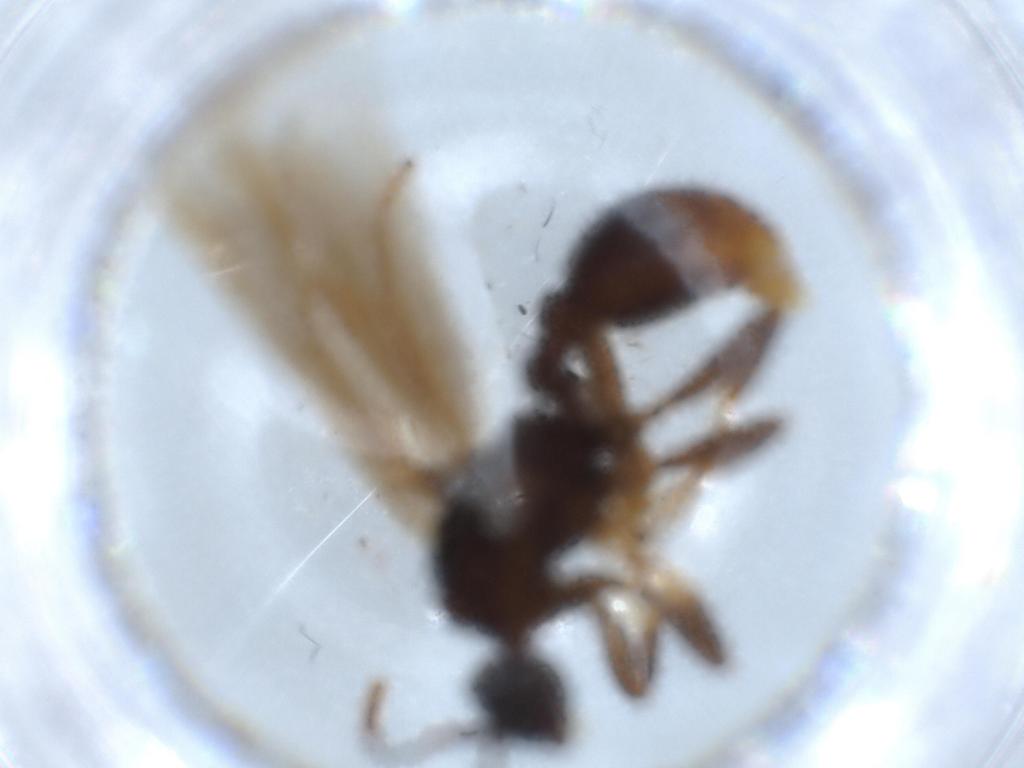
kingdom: Animalia
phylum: Arthropoda
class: Insecta
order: Hymenoptera
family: Formicidae
